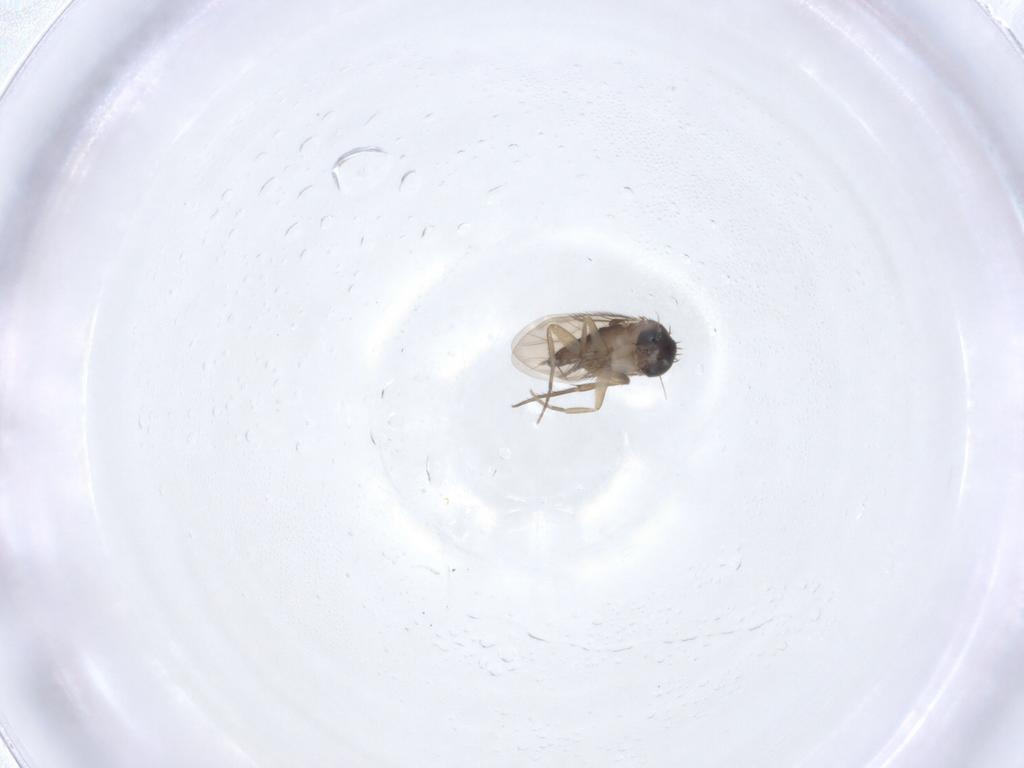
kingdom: Animalia
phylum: Arthropoda
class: Insecta
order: Diptera
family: Phoridae
